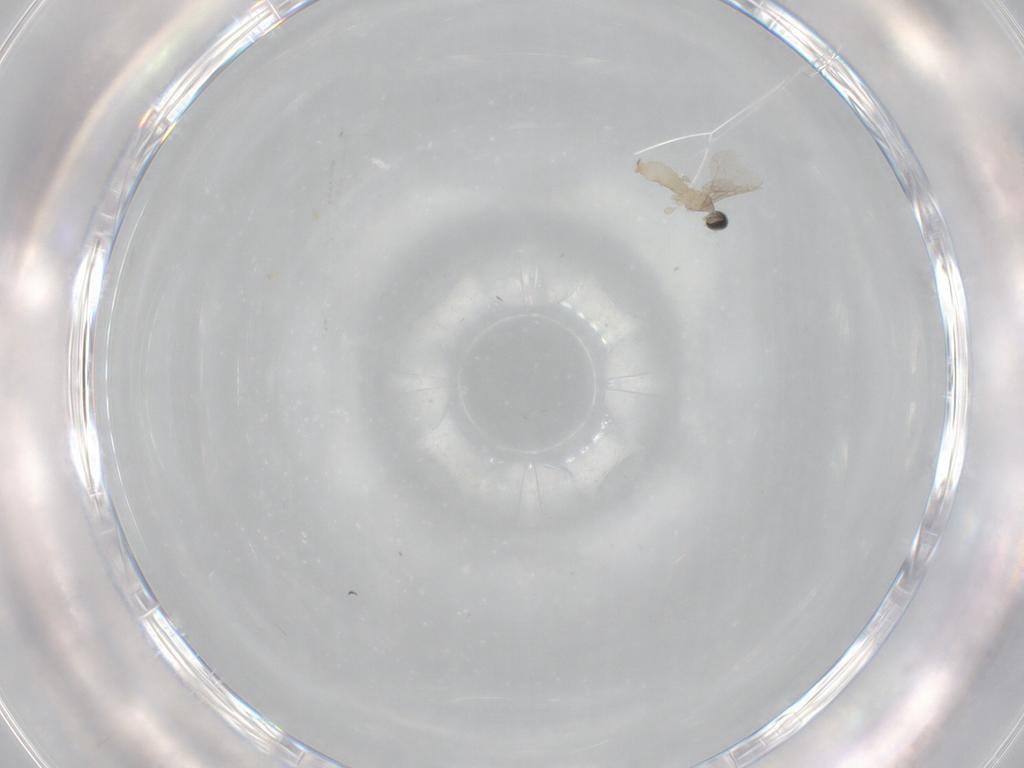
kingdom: Animalia
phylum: Arthropoda
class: Insecta
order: Diptera
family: Cecidomyiidae
